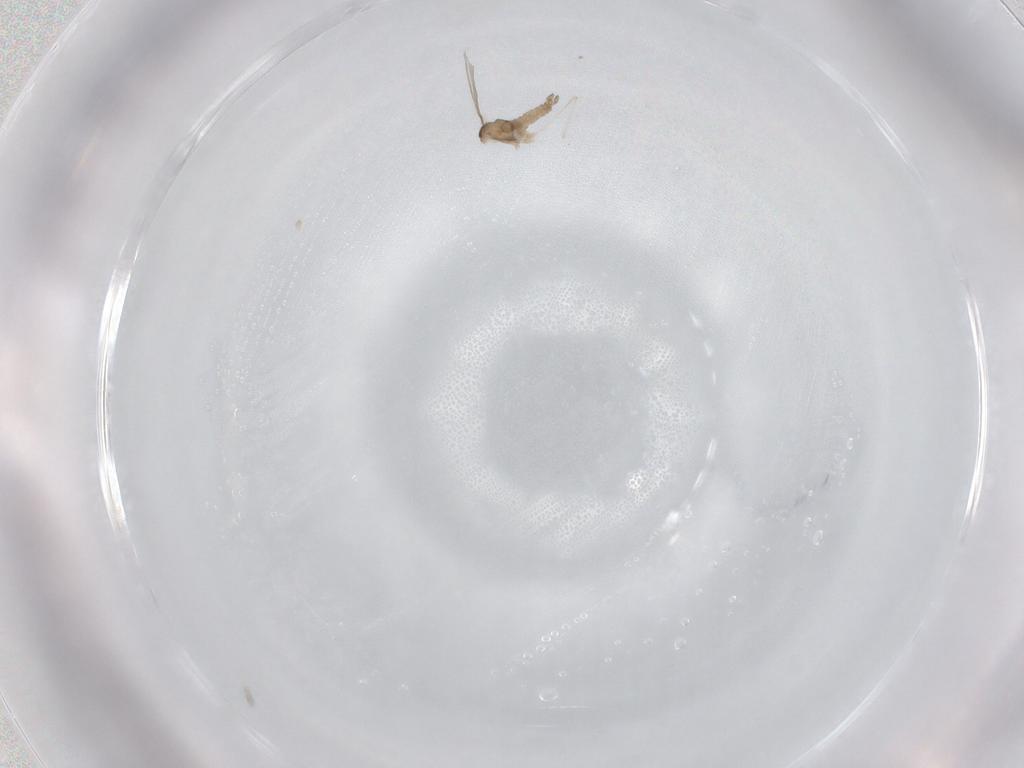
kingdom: Animalia
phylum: Arthropoda
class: Insecta
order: Diptera
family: Cecidomyiidae
